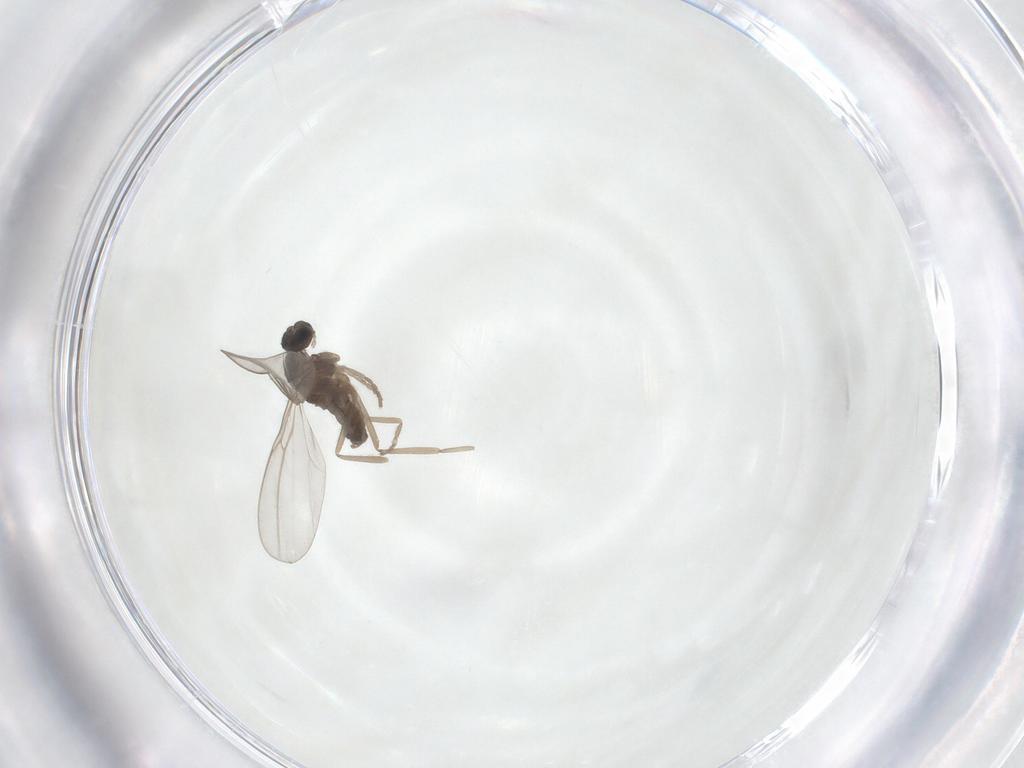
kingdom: Animalia
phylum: Arthropoda
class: Insecta
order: Diptera
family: Cecidomyiidae
